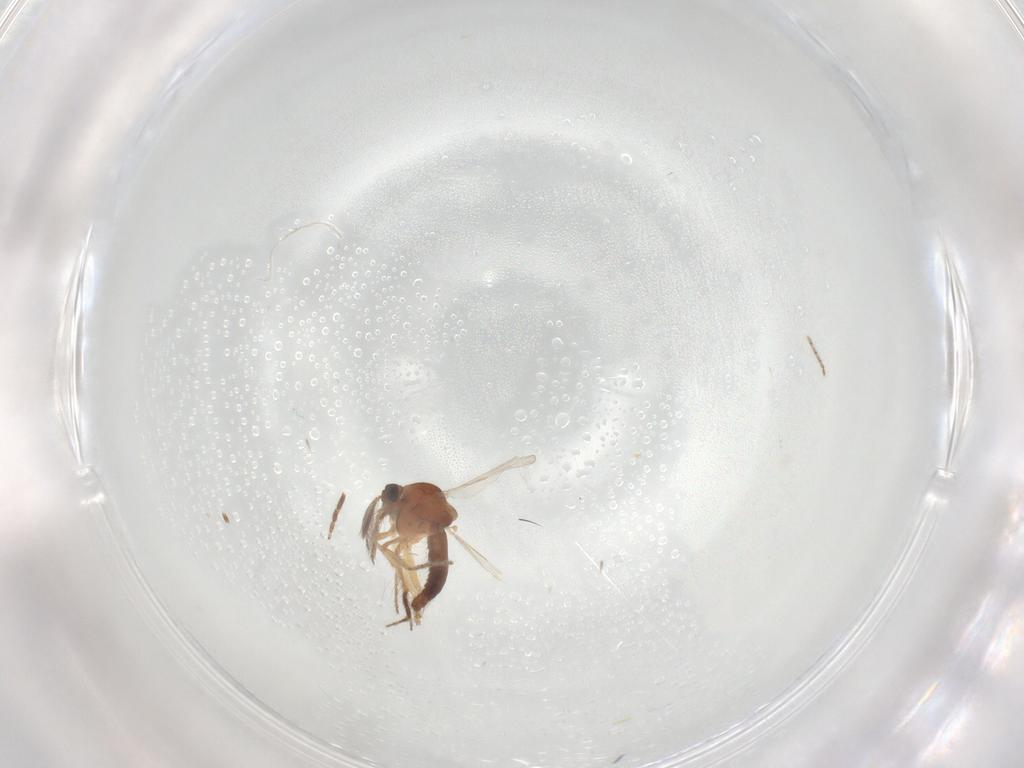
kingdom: Animalia
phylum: Arthropoda
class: Insecta
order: Diptera
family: Ceratopogonidae
